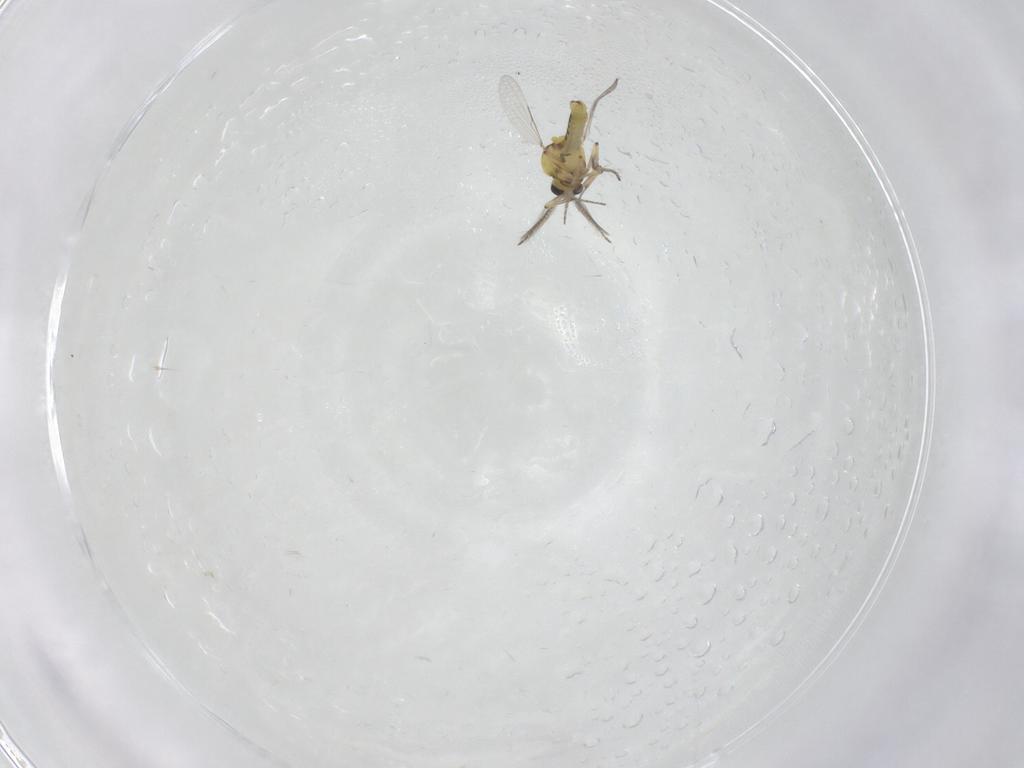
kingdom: Animalia
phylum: Arthropoda
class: Insecta
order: Diptera
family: Ceratopogonidae
